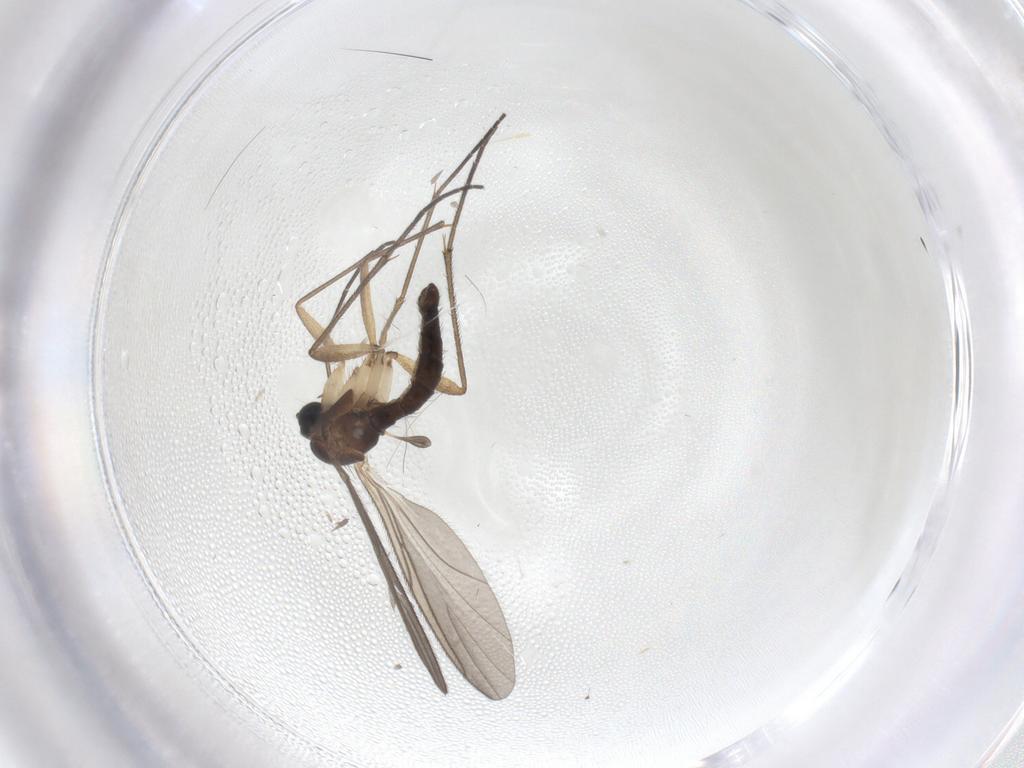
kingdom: Animalia
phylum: Arthropoda
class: Insecta
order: Diptera
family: Sciaridae
